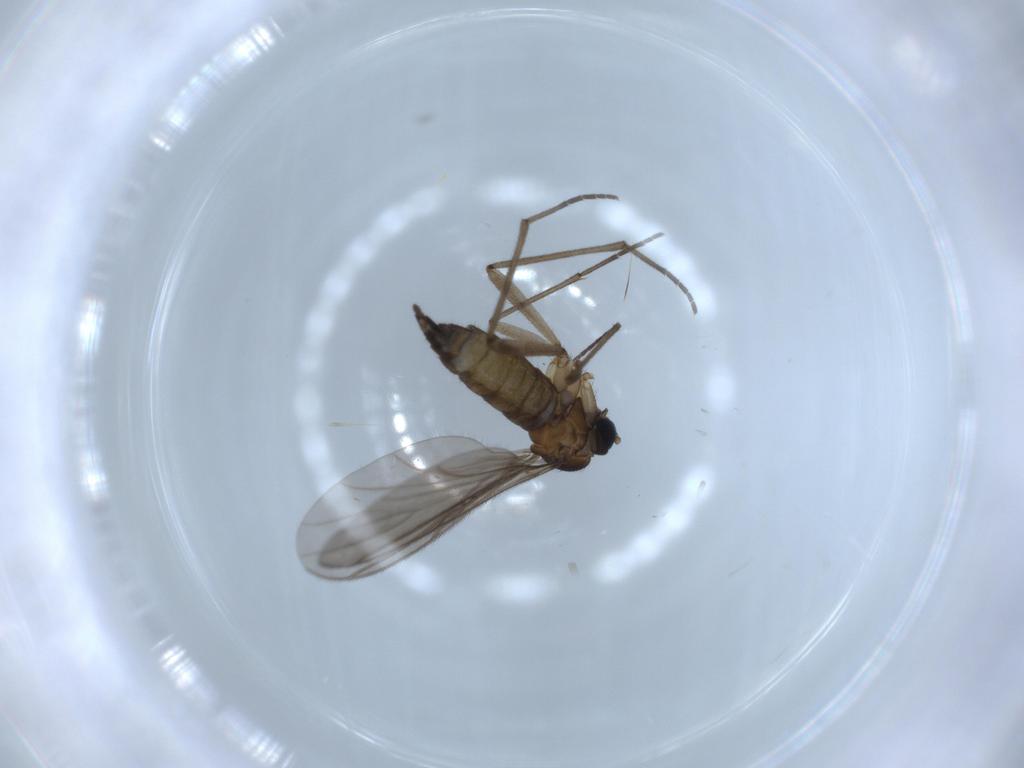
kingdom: Animalia
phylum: Arthropoda
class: Insecta
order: Diptera
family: Sciaridae
